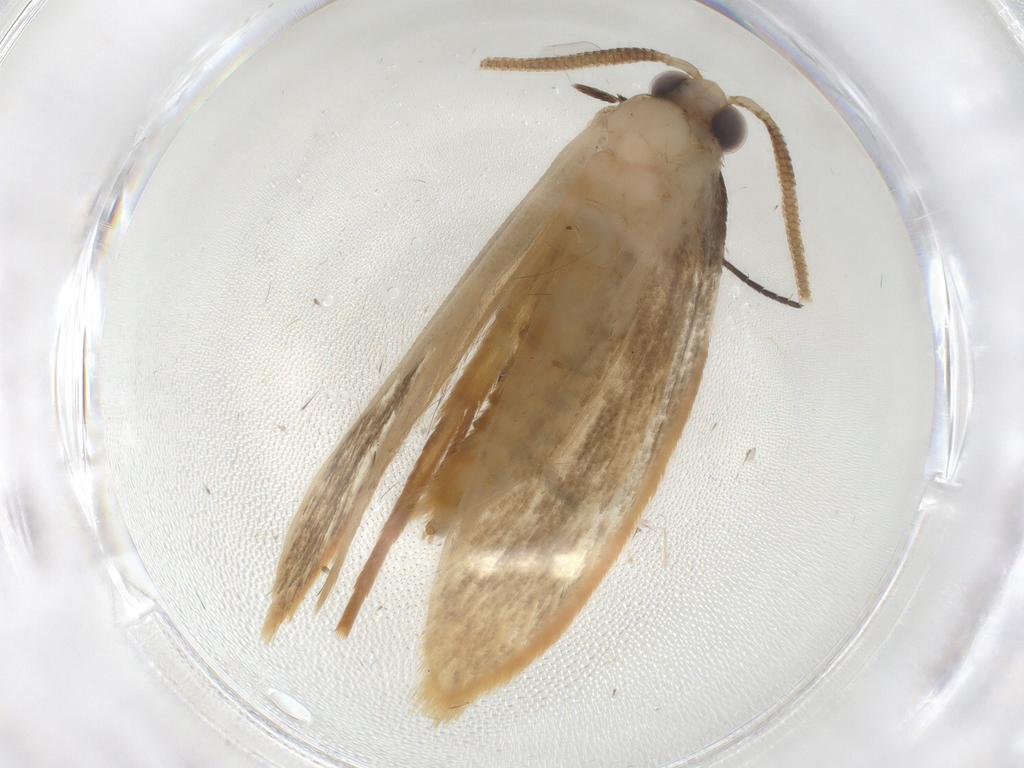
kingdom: Animalia
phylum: Arthropoda
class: Insecta
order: Lepidoptera
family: Tineidae
